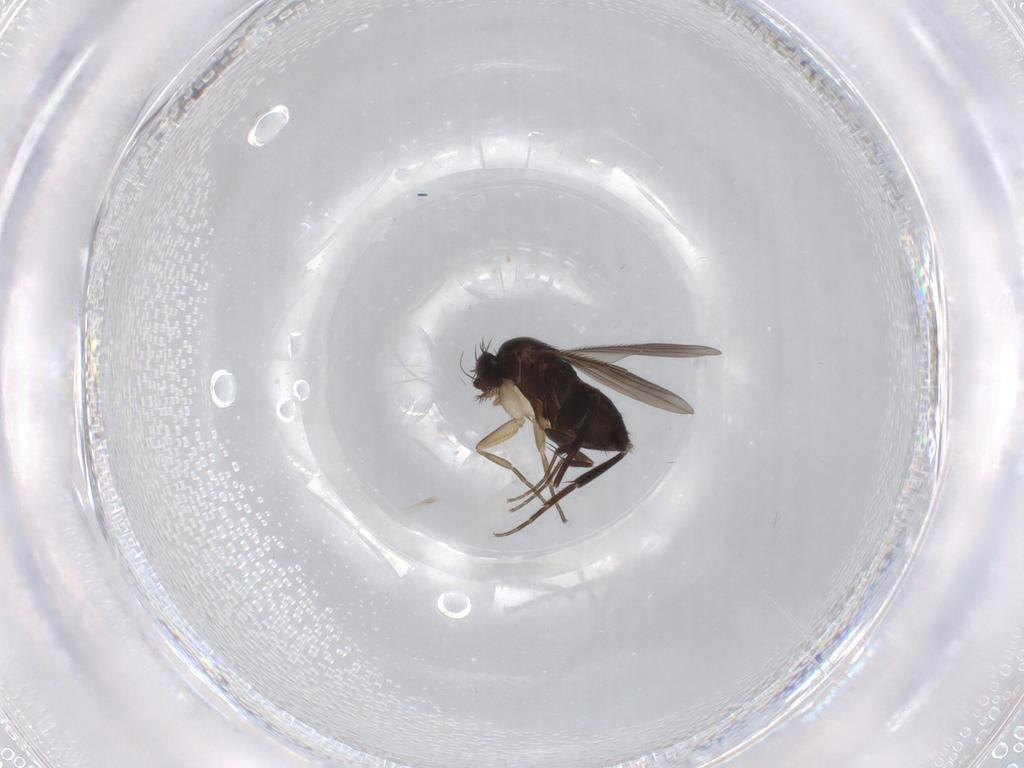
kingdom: Animalia
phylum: Arthropoda
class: Insecta
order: Diptera
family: Phoridae
